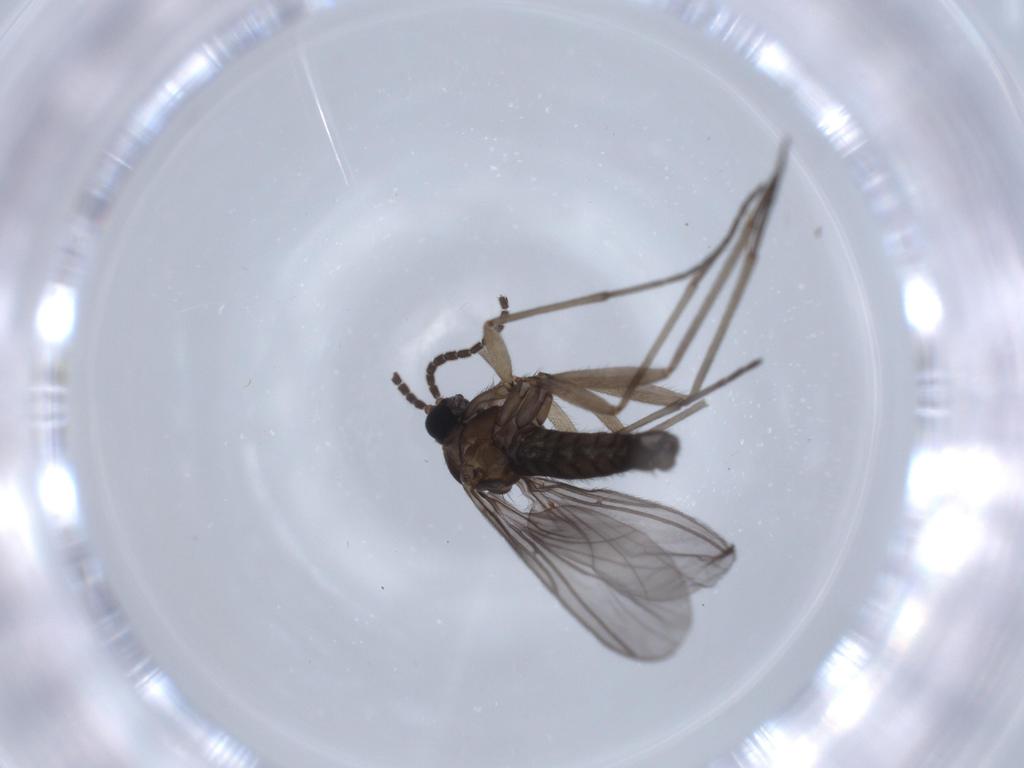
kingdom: Animalia
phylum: Arthropoda
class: Insecta
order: Diptera
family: Sciaridae
